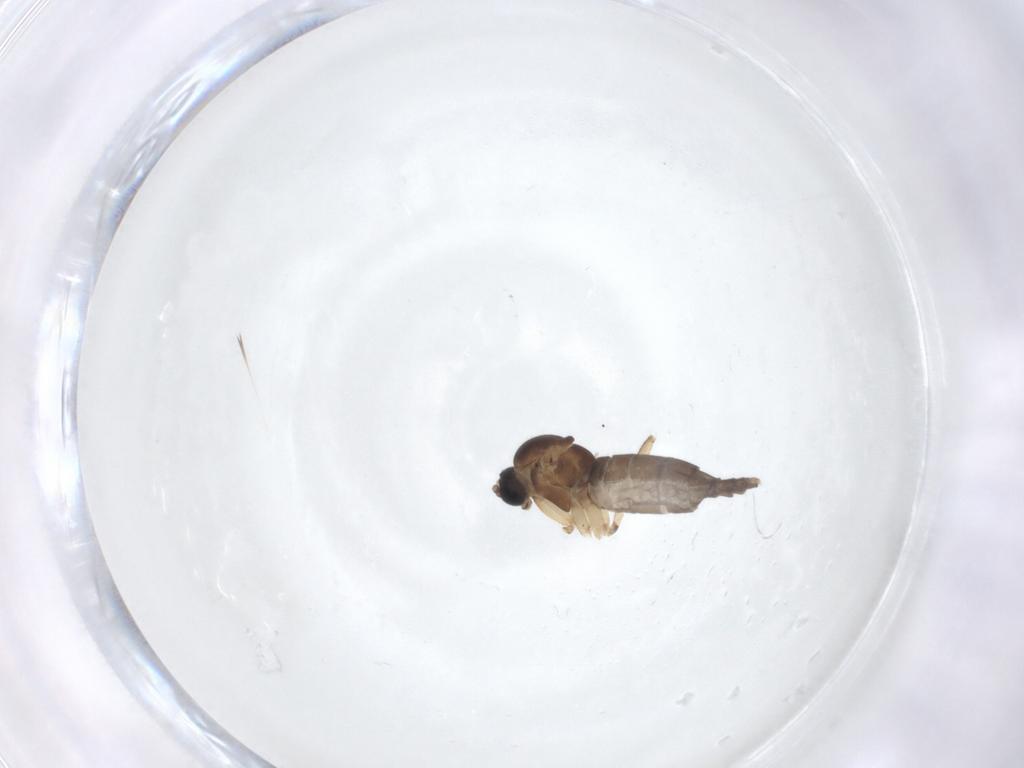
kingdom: Animalia
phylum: Arthropoda
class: Insecta
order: Diptera
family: Sciaridae
